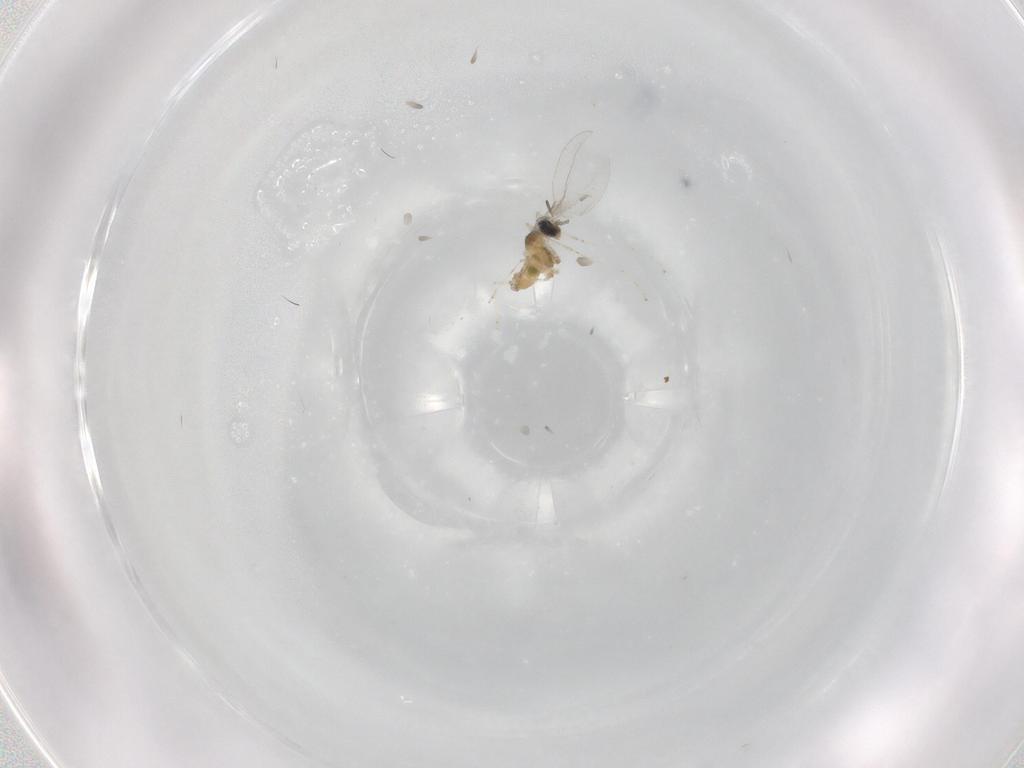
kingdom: Animalia
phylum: Arthropoda
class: Insecta
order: Diptera
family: Cecidomyiidae
